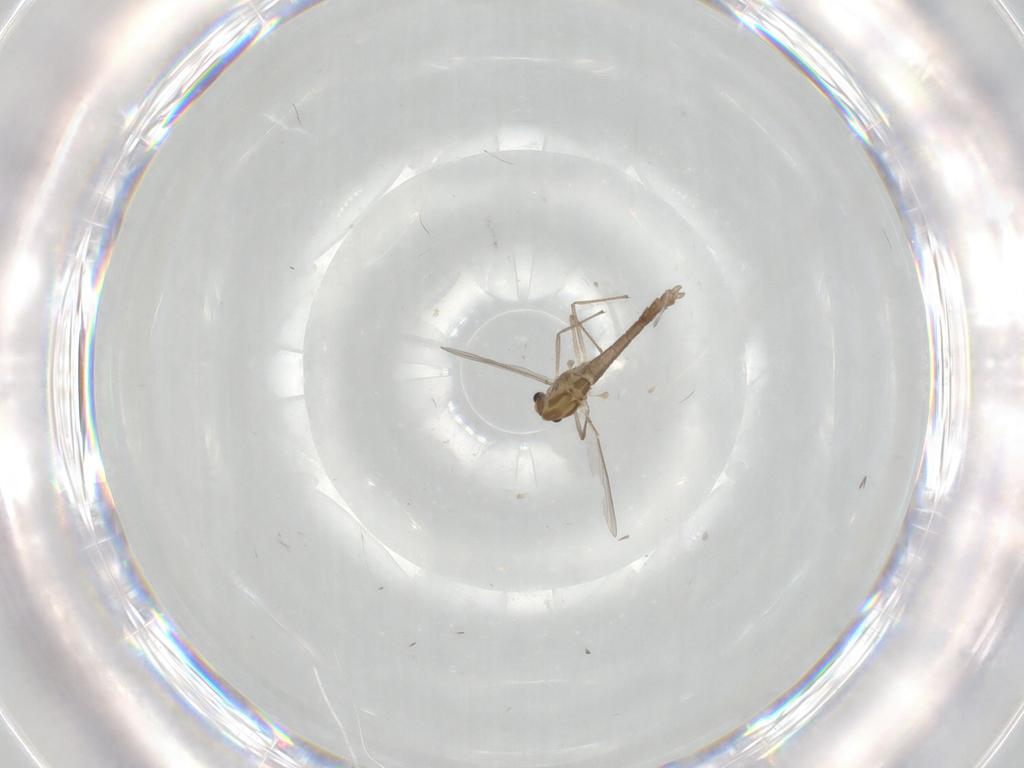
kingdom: Animalia
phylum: Arthropoda
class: Insecta
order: Diptera
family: Chironomidae
